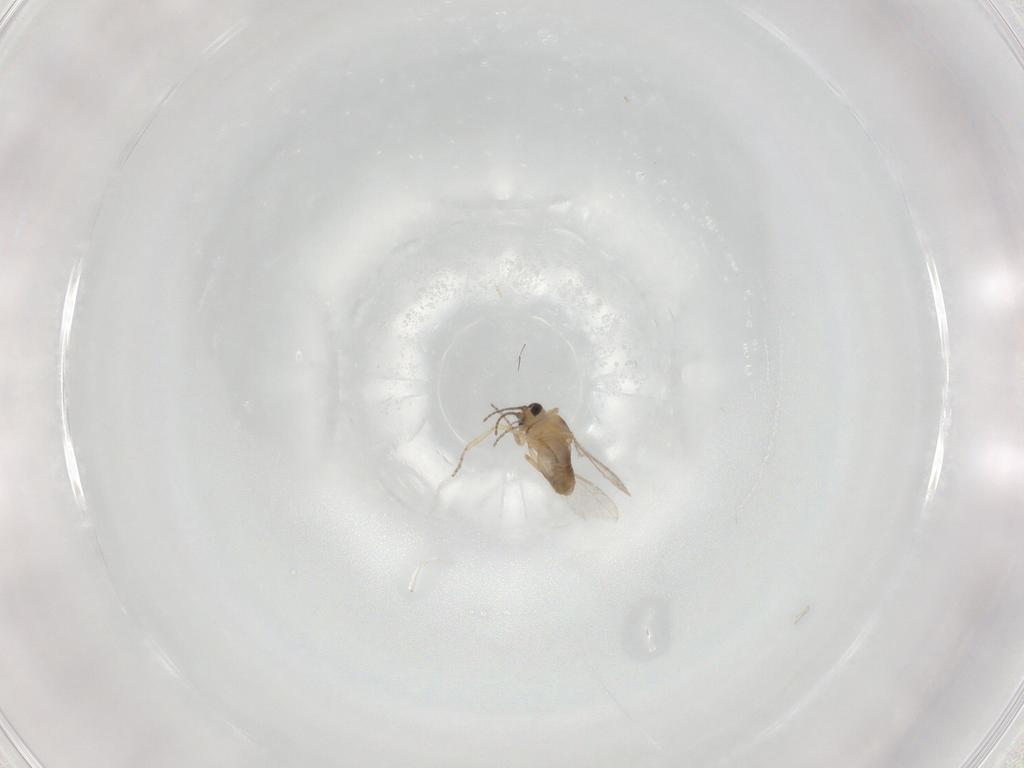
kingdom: Animalia
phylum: Arthropoda
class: Insecta
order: Diptera
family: Ceratopogonidae
